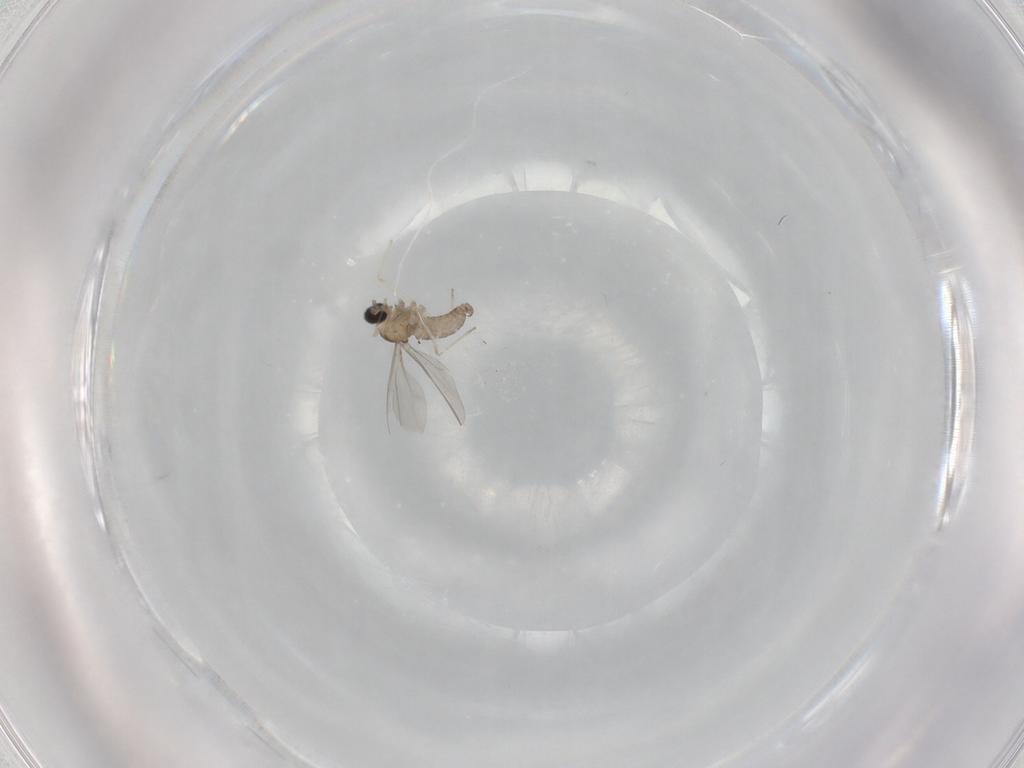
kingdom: Animalia
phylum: Arthropoda
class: Insecta
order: Diptera
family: Cecidomyiidae
